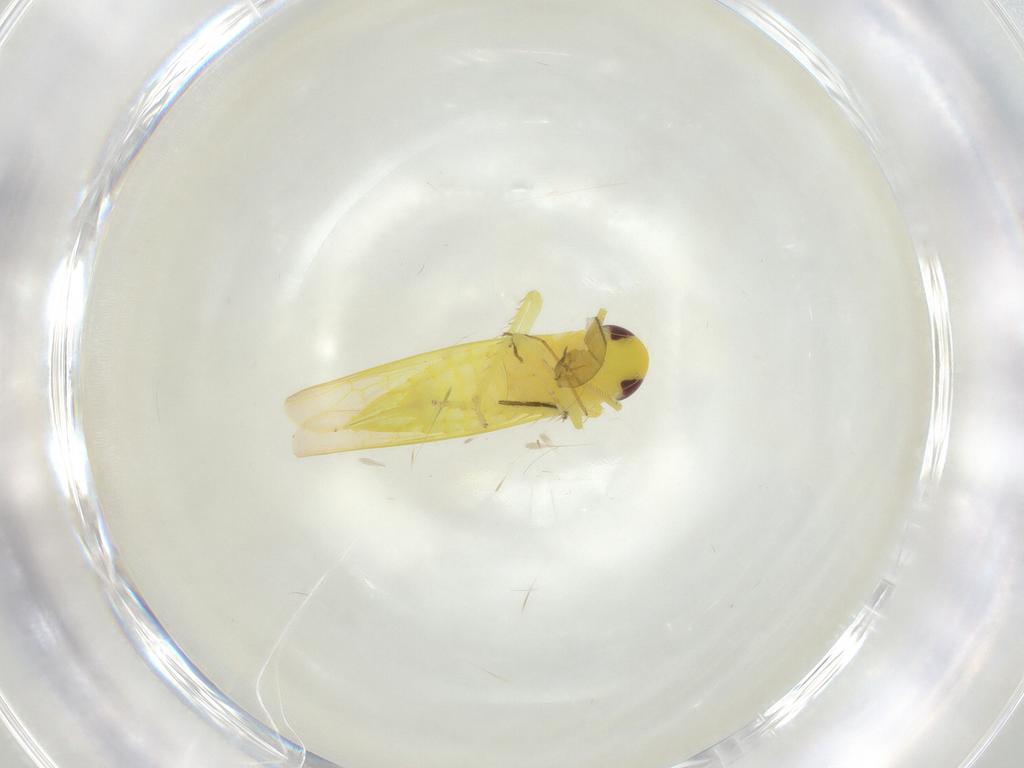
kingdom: Animalia
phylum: Arthropoda
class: Insecta
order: Hemiptera
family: Cicadellidae
